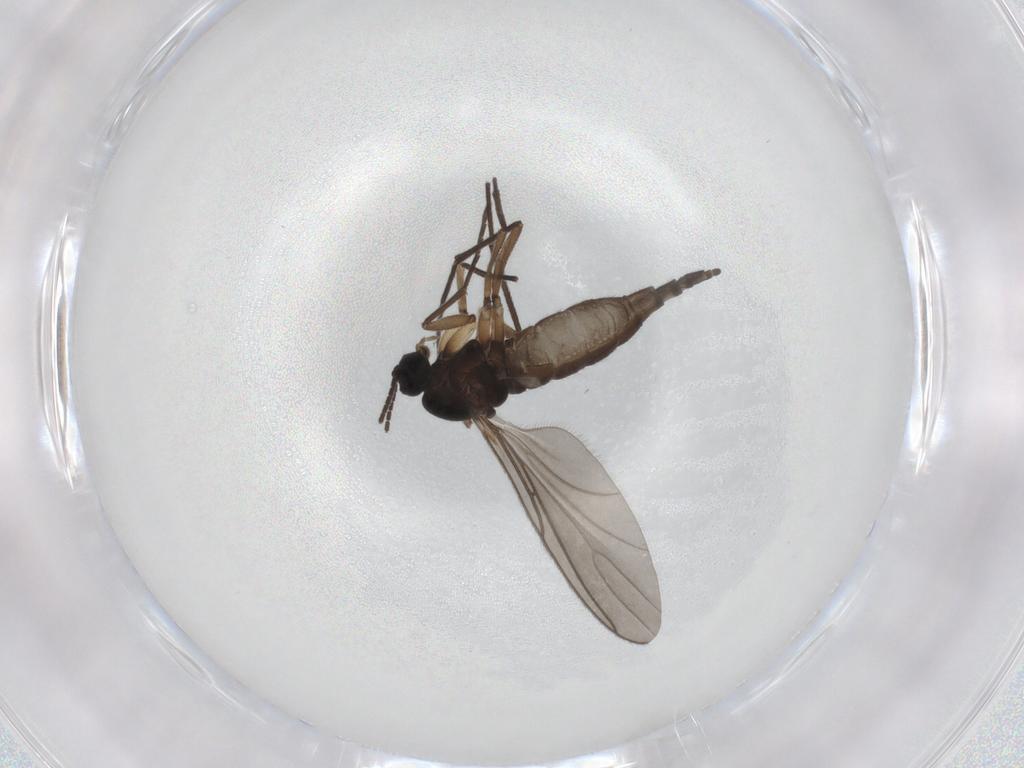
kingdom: Animalia
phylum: Arthropoda
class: Insecta
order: Diptera
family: Sciaridae
